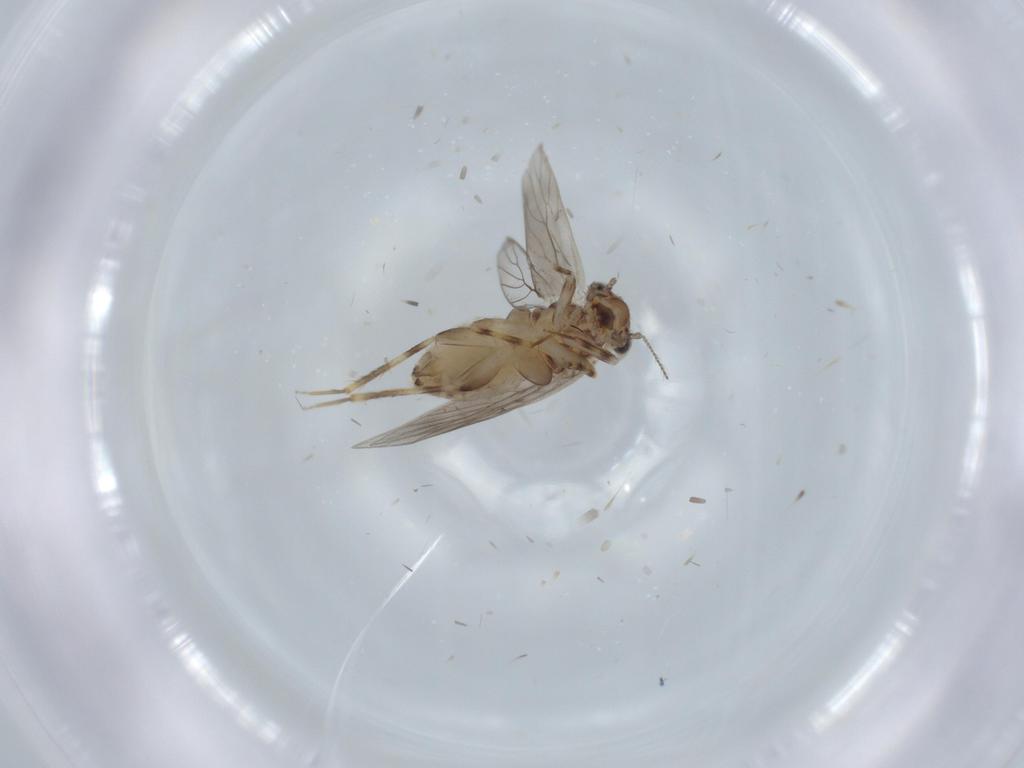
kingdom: Animalia
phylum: Arthropoda
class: Insecta
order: Psocodea
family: Lepidopsocidae
